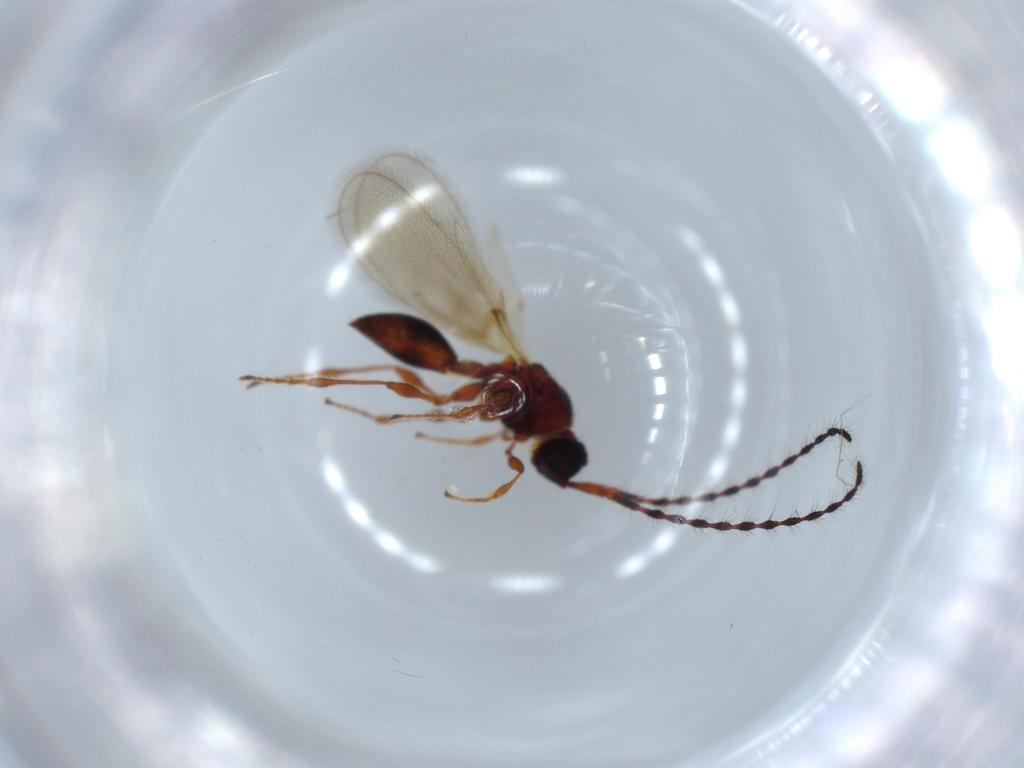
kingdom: Animalia
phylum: Arthropoda
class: Insecta
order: Hymenoptera
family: Diapriidae
